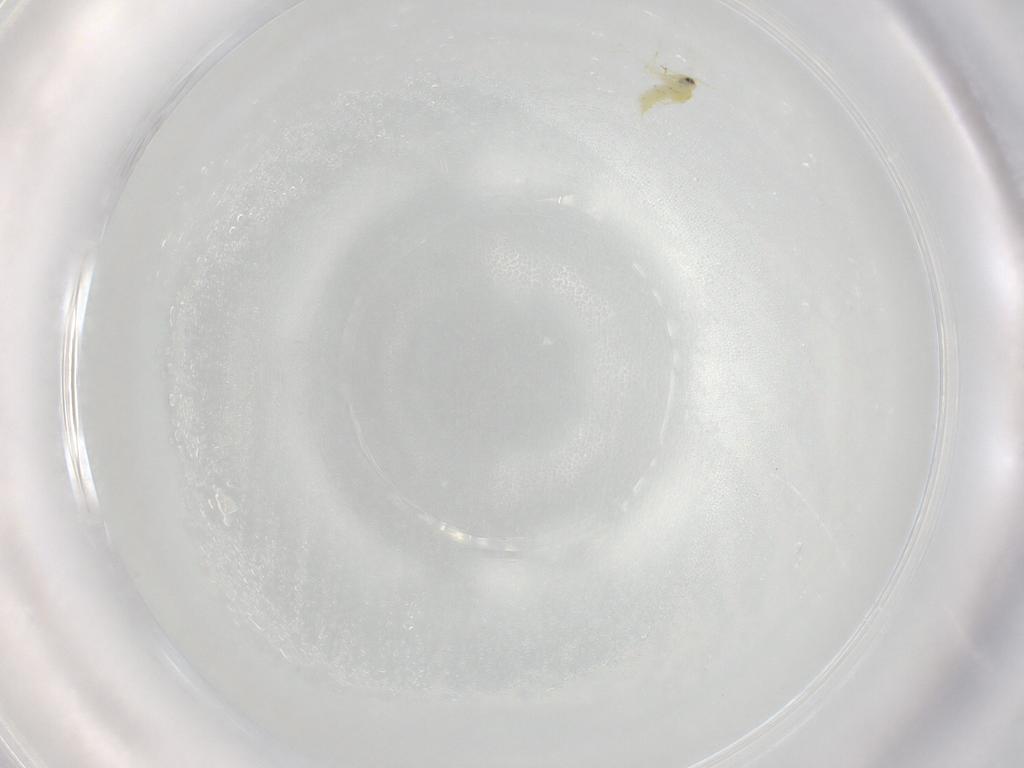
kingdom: Animalia
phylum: Arthropoda
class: Insecta
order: Hemiptera
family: Aleyrodidae
